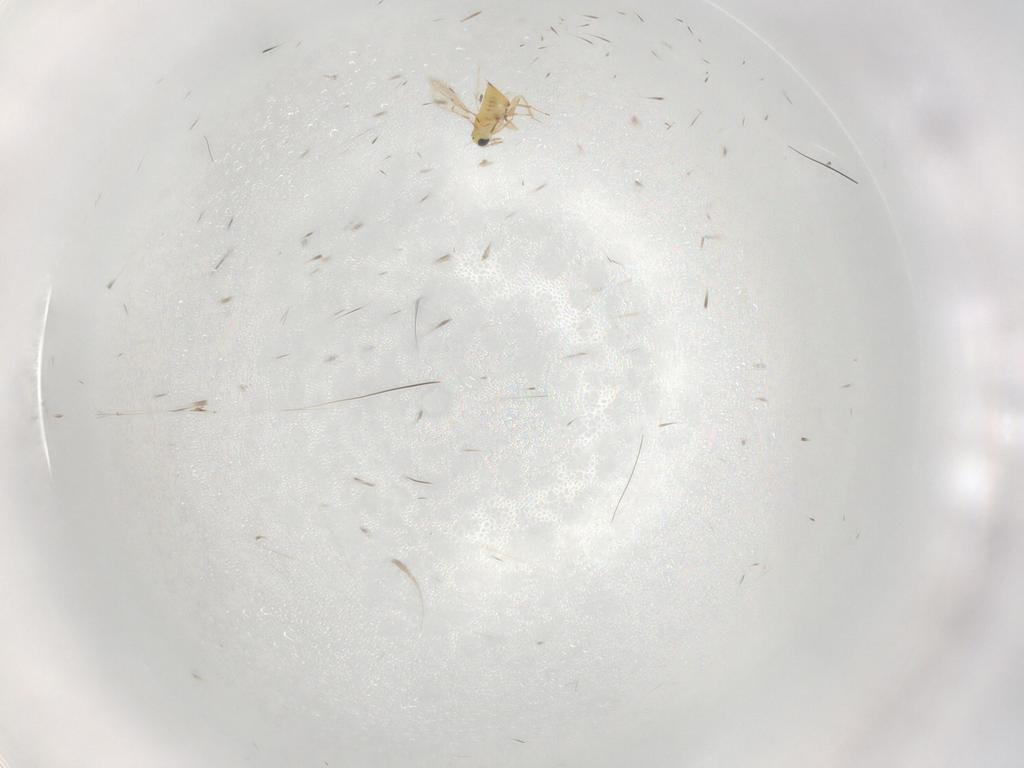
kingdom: Animalia
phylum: Arthropoda
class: Insecta
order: Hymenoptera
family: Trichogrammatidae
